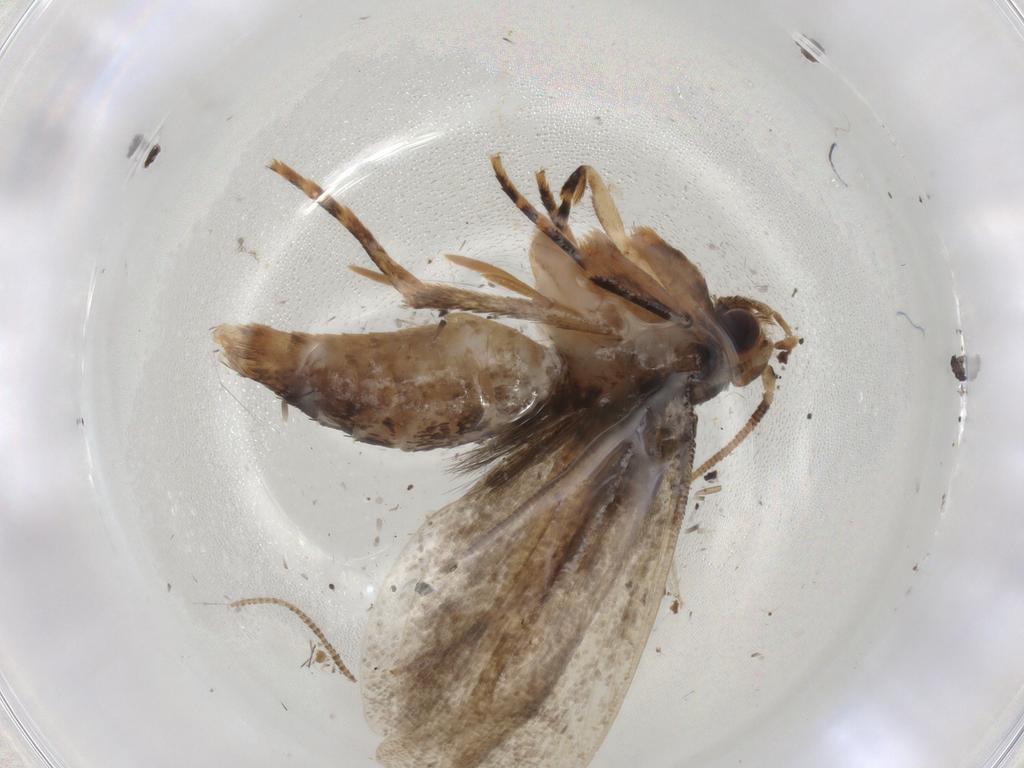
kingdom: Animalia
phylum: Arthropoda
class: Insecta
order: Lepidoptera
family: Tineidae
